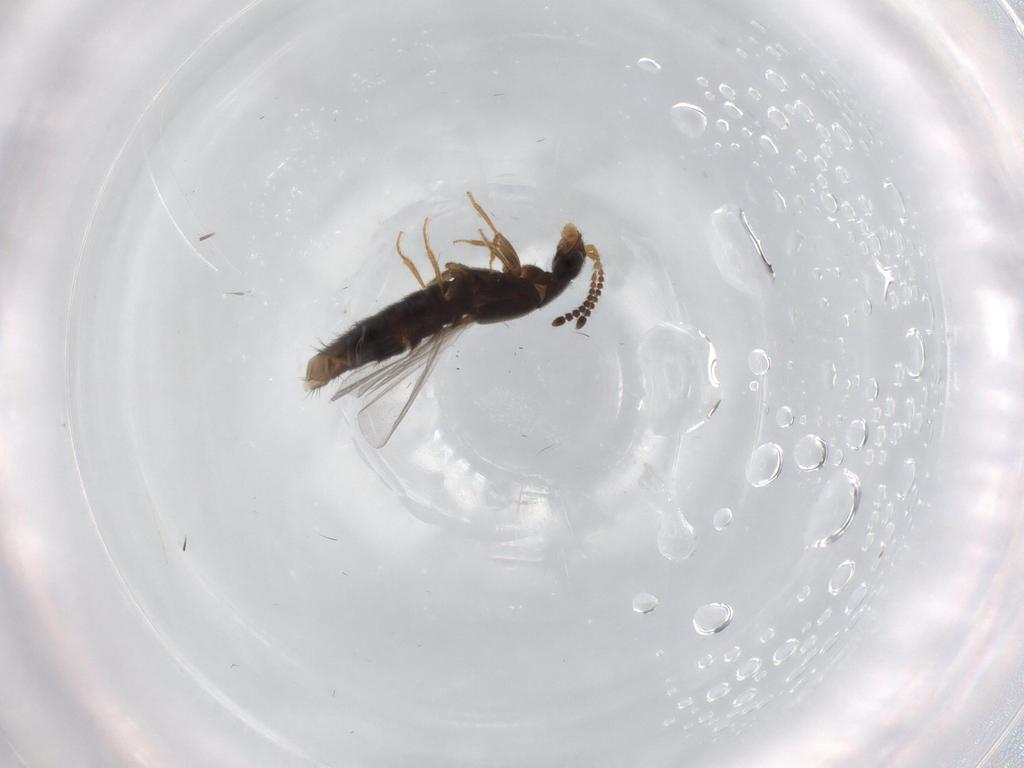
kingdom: Animalia
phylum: Arthropoda
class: Insecta
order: Coleoptera
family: Staphylinidae
